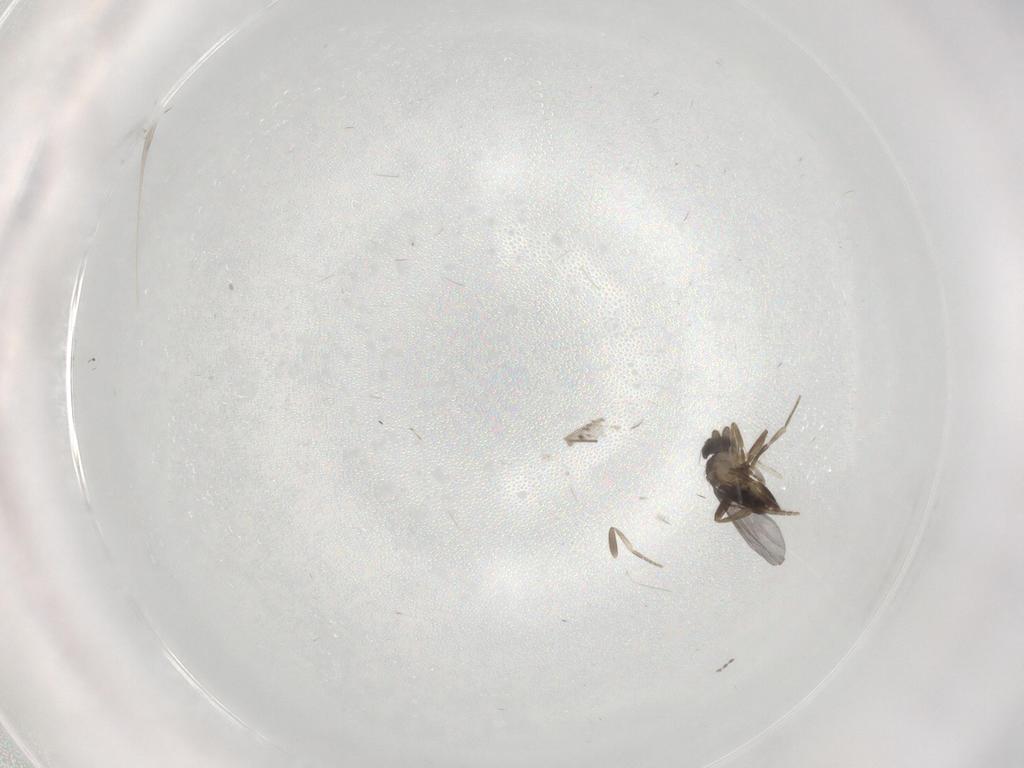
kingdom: Animalia
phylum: Arthropoda
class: Insecta
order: Diptera
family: Cecidomyiidae
